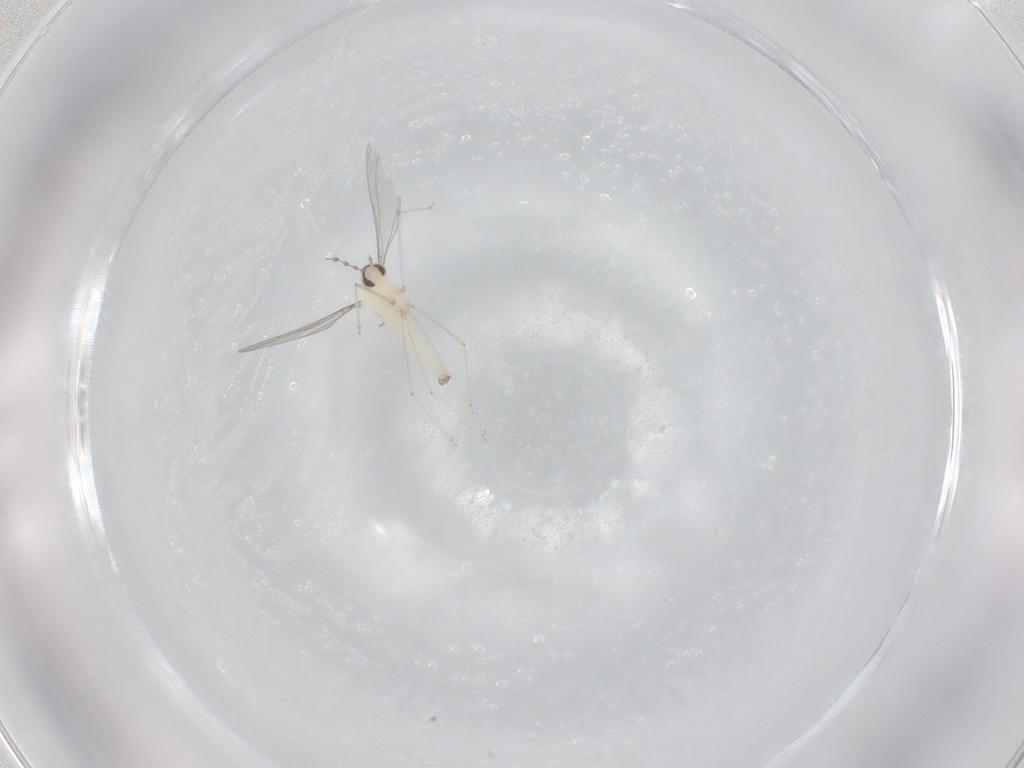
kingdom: Animalia
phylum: Arthropoda
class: Insecta
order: Diptera
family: Cecidomyiidae
